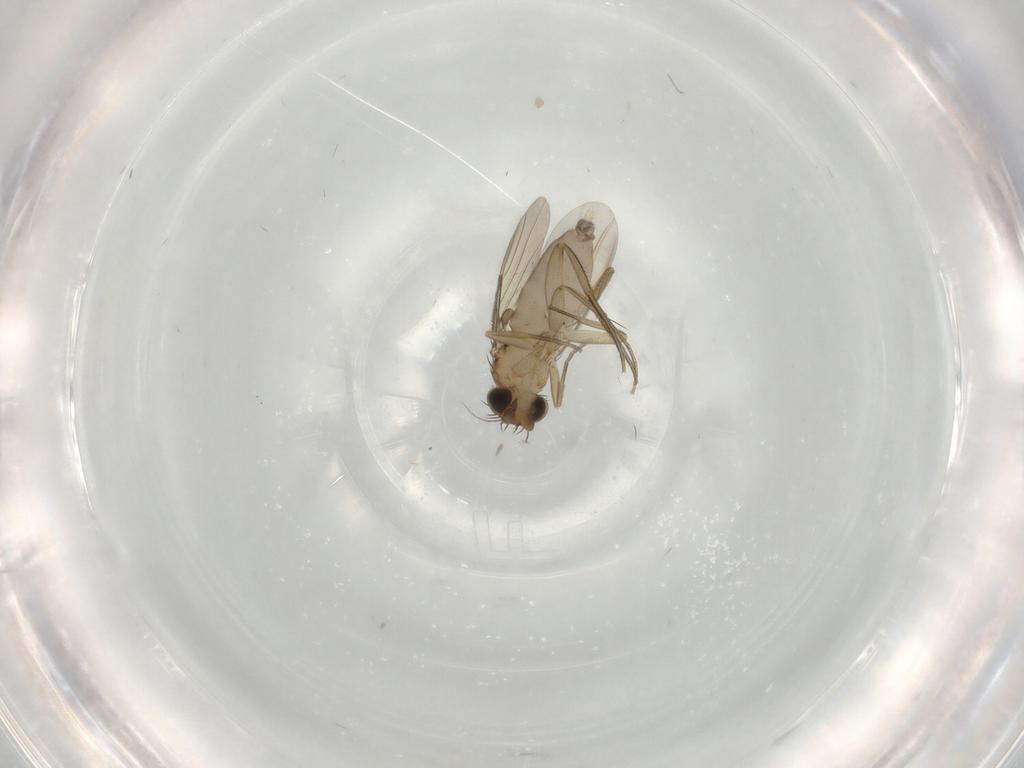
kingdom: Animalia
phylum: Arthropoda
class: Insecta
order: Diptera
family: Phoridae
